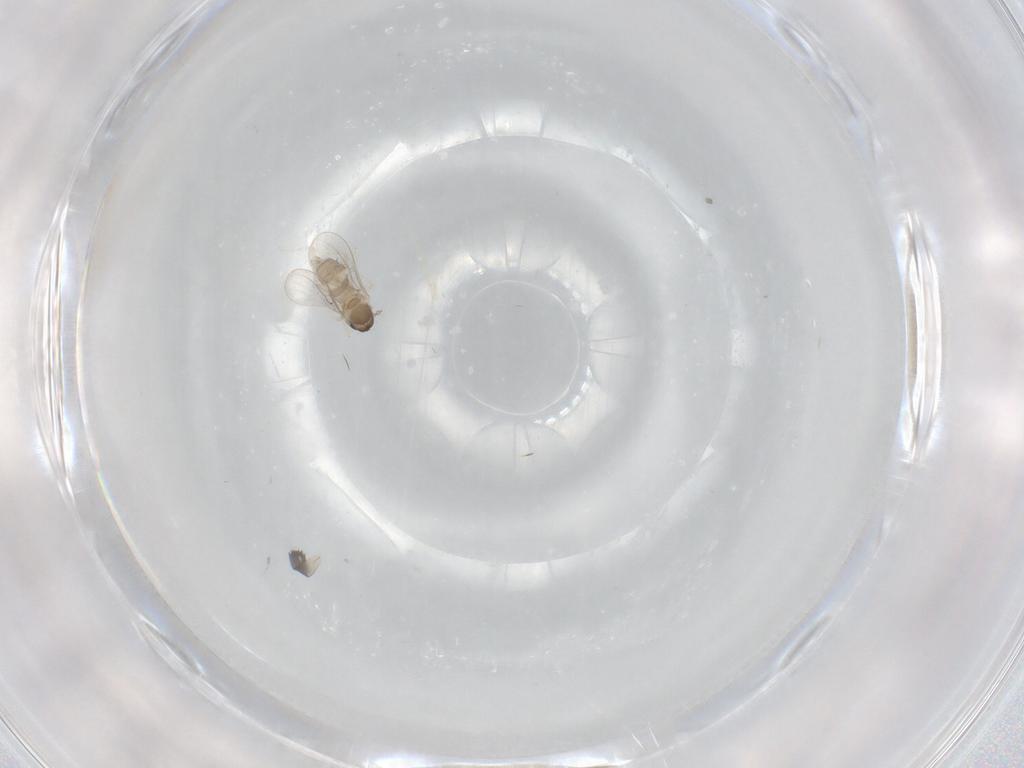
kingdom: Animalia
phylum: Arthropoda
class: Insecta
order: Diptera
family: Cecidomyiidae
